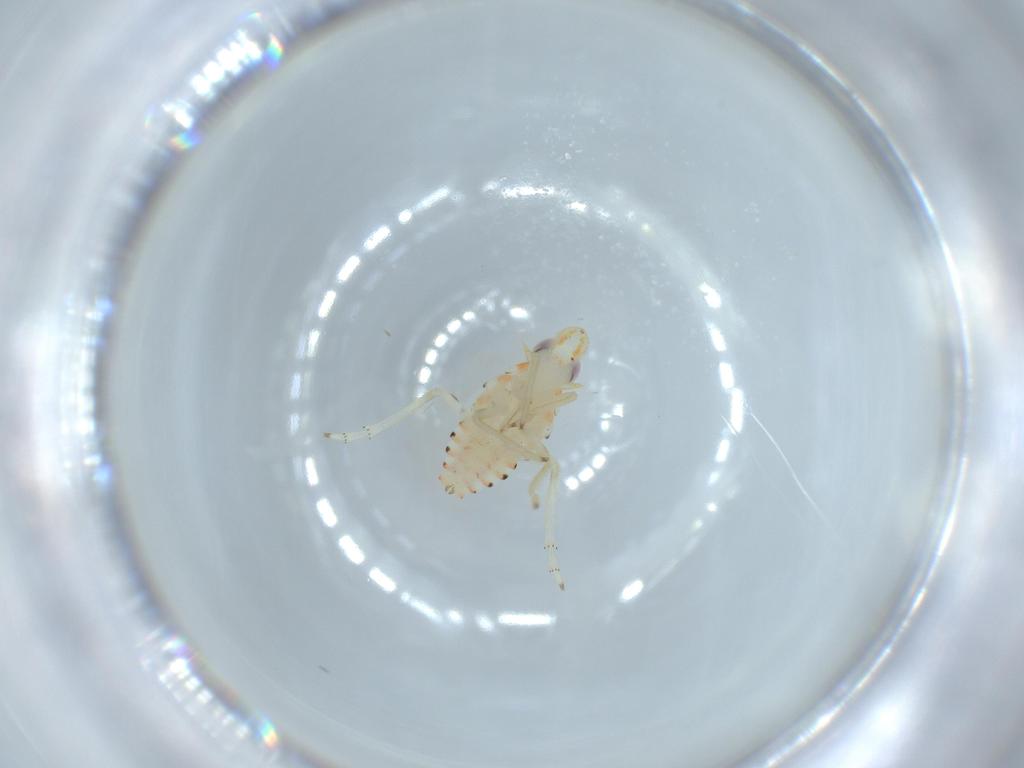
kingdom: Animalia
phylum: Arthropoda
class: Insecta
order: Hemiptera
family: Tropiduchidae
